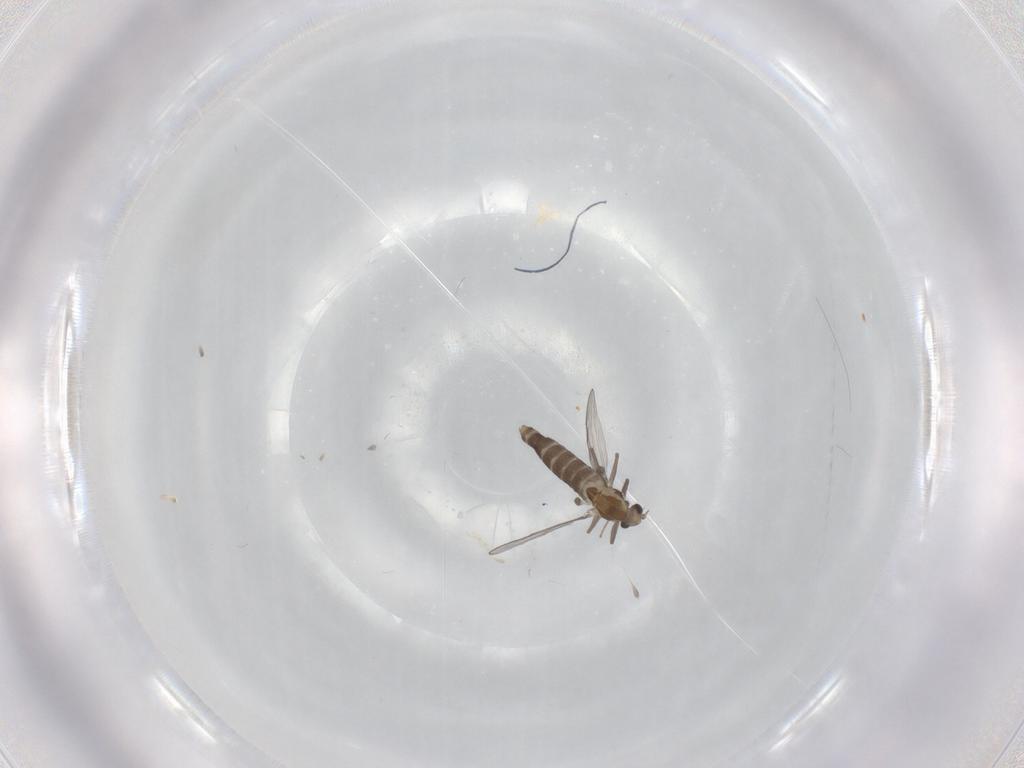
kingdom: Animalia
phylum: Arthropoda
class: Insecta
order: Diptera
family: Chironomidae
